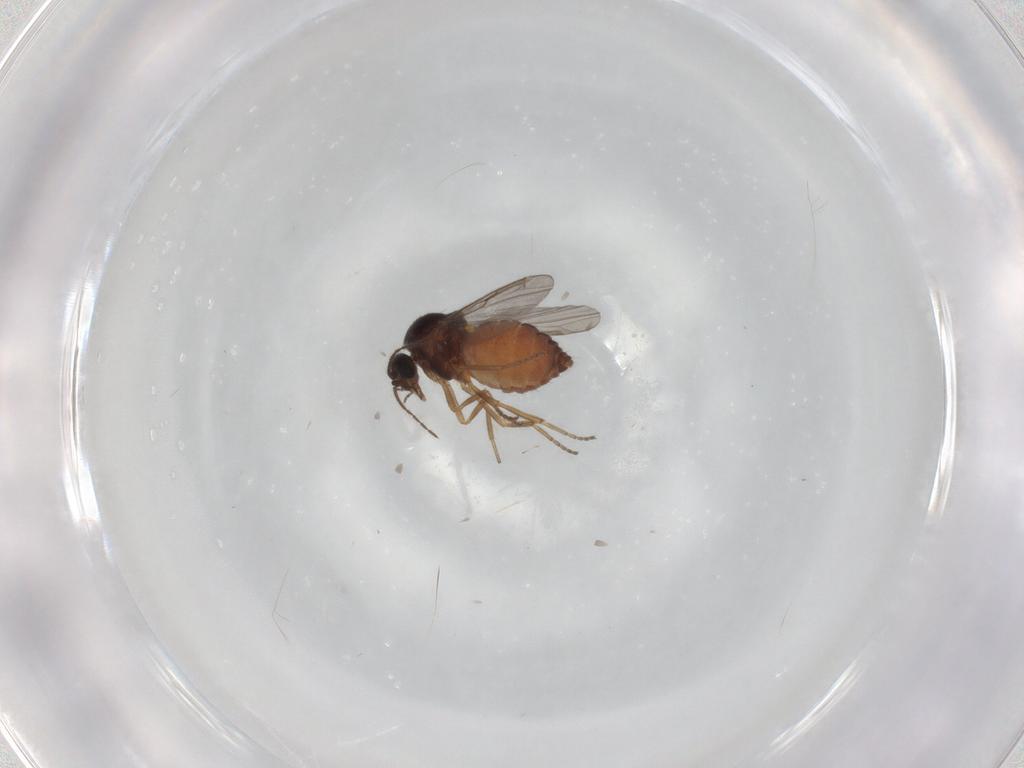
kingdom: Animalia
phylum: Arthropoda
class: Insecta
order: Diptera
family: Ceratopogonidae
